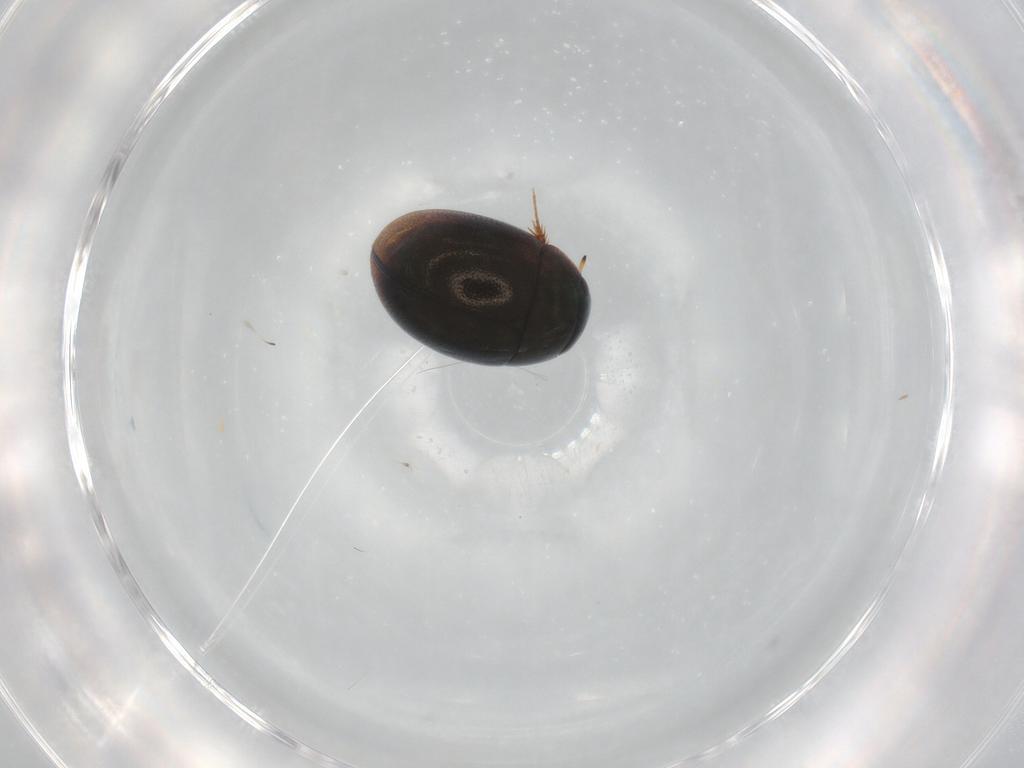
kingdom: Animalia
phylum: Arthropoda
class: Insecta
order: Coleoptera
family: Hydrophilidae
